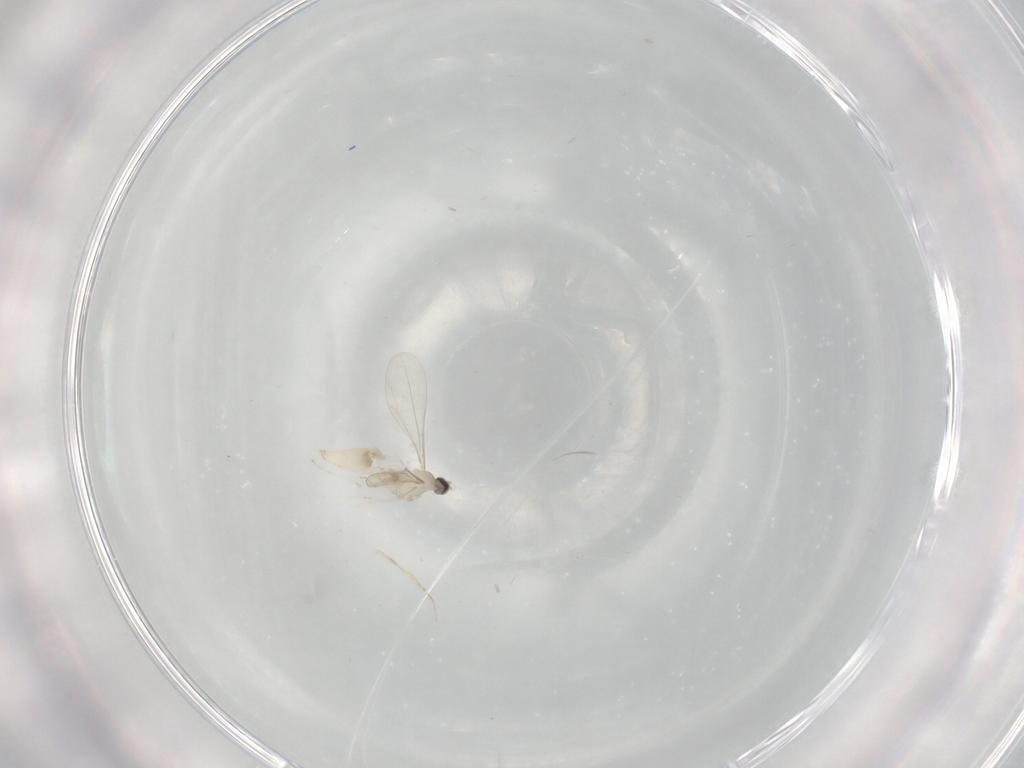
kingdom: Animalia
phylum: Arthropoda
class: Insecta
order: Diptera
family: Cecidomyiidae
